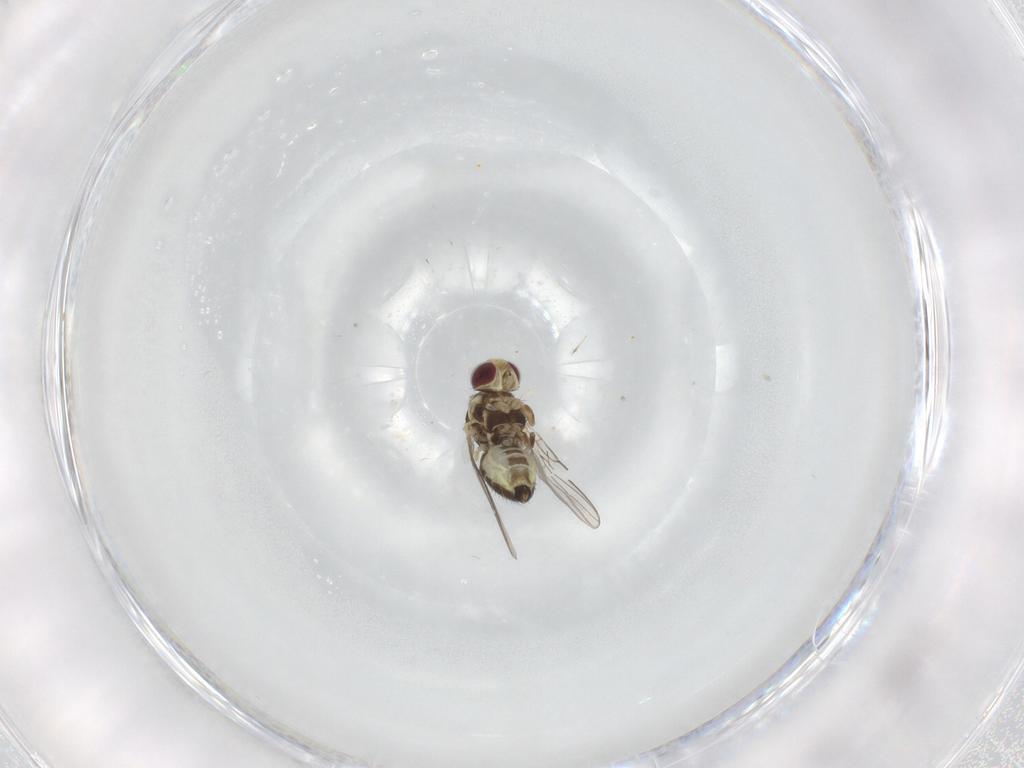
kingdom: Animalia
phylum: Arthropoda
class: Insecta
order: Diptera
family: Agromyzidae
